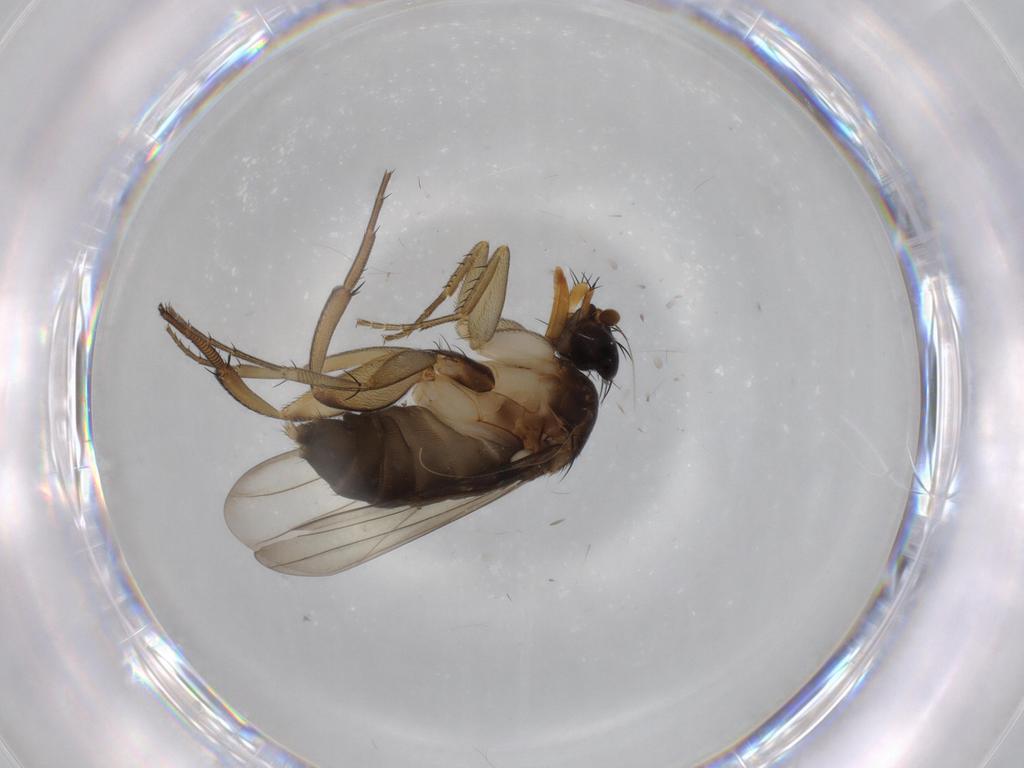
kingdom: Animalia
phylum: Arthropoda
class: Insecta
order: Diptera
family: Phoridae
